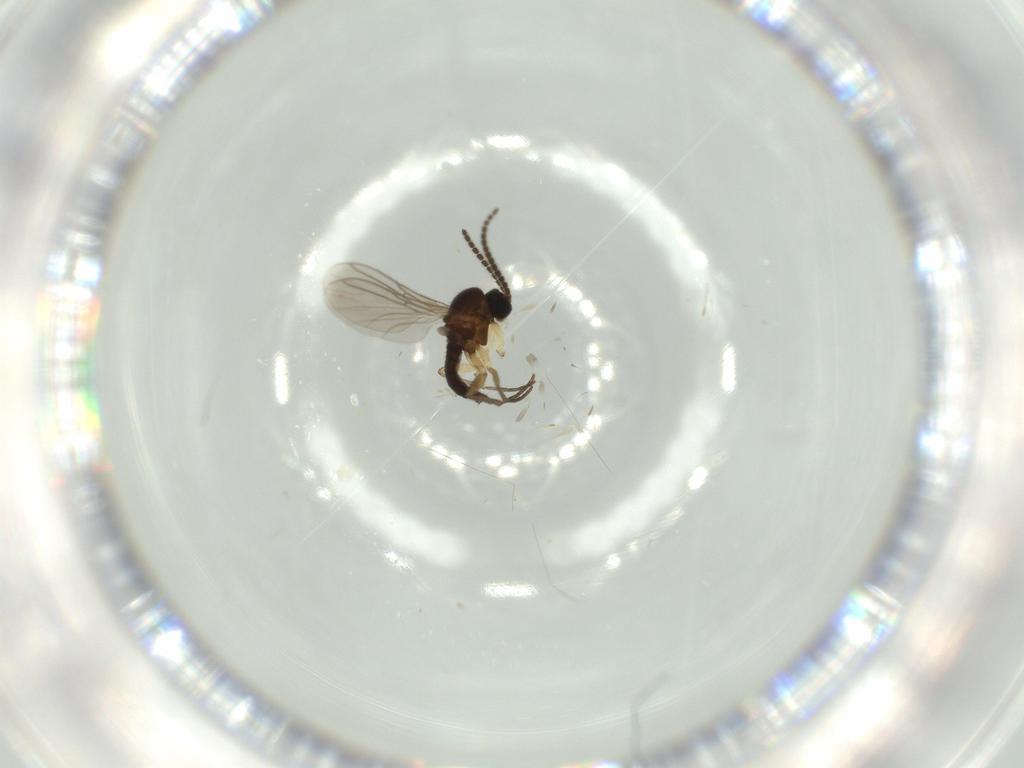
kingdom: Animalia
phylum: Arthropoda
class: Insecta
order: Diptera
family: Sciaridae
